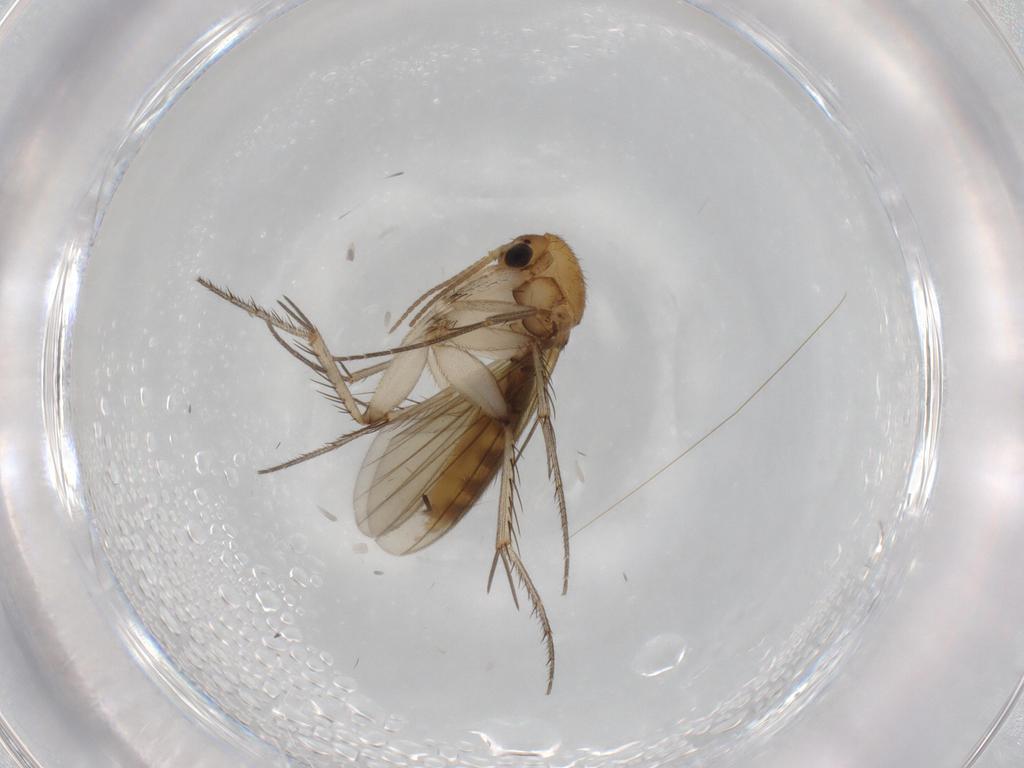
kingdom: Animalia
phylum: Arthropoda
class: Insecta
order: Diptera
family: Mycetophilidae
